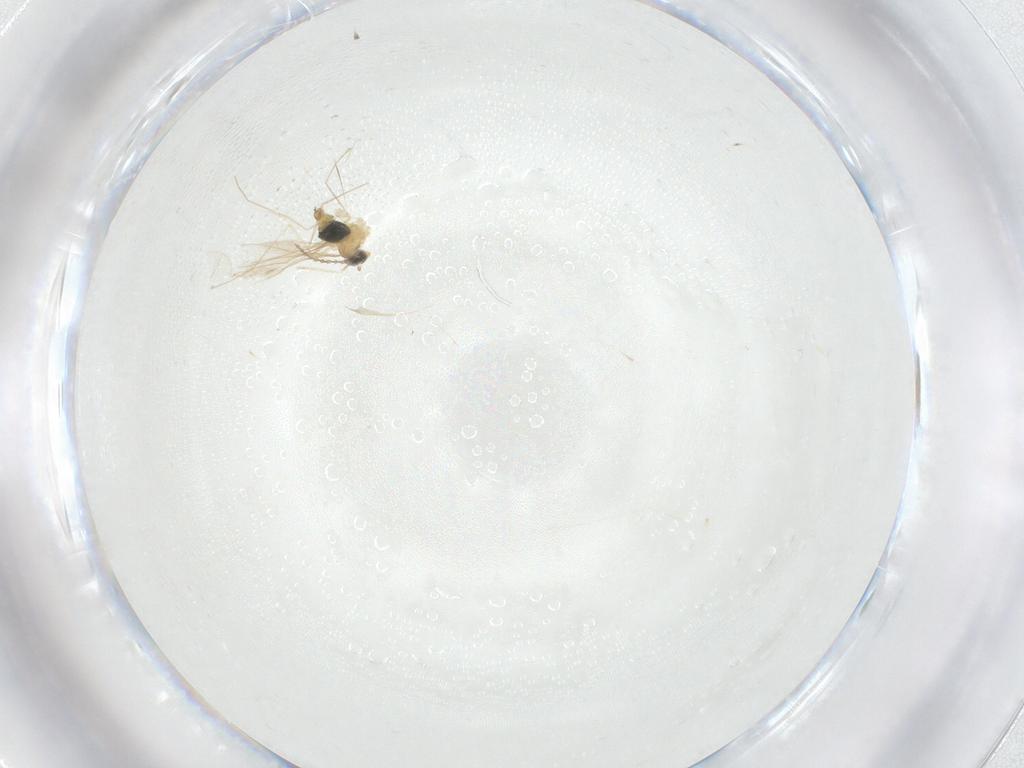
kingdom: Animalia
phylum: Arthropoda
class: Insecta
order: Diptera
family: Cecidomyiidae
